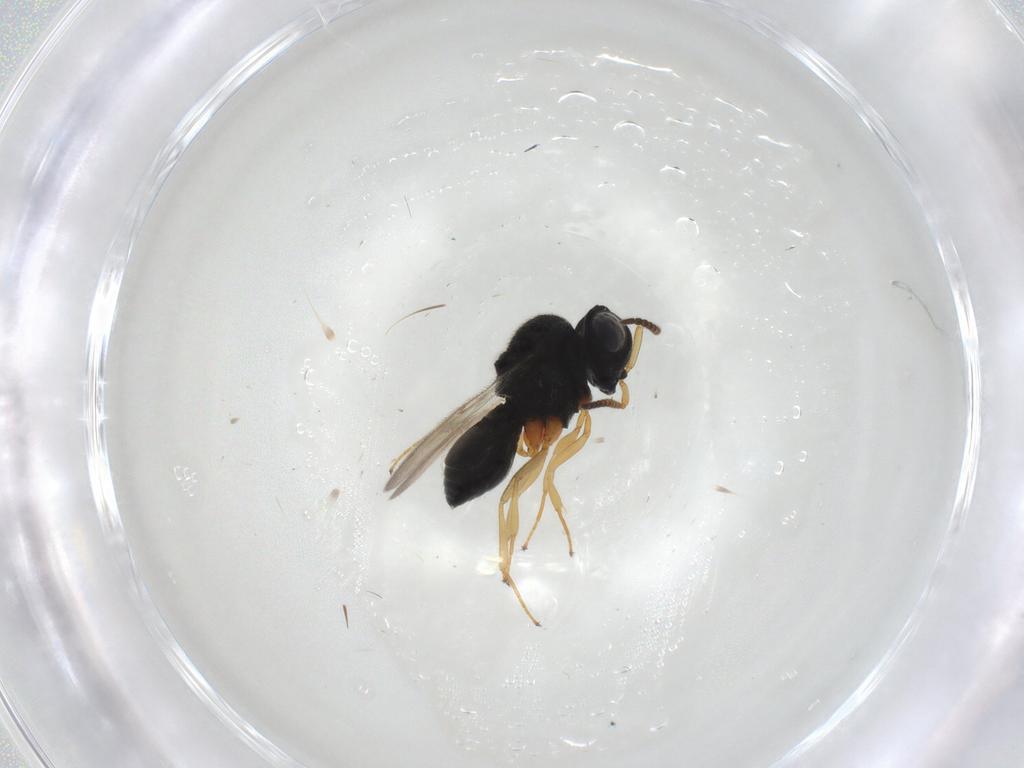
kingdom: Animalia
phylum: Arthropoda
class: Insecta
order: Hymenoptera
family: Scelionidae
